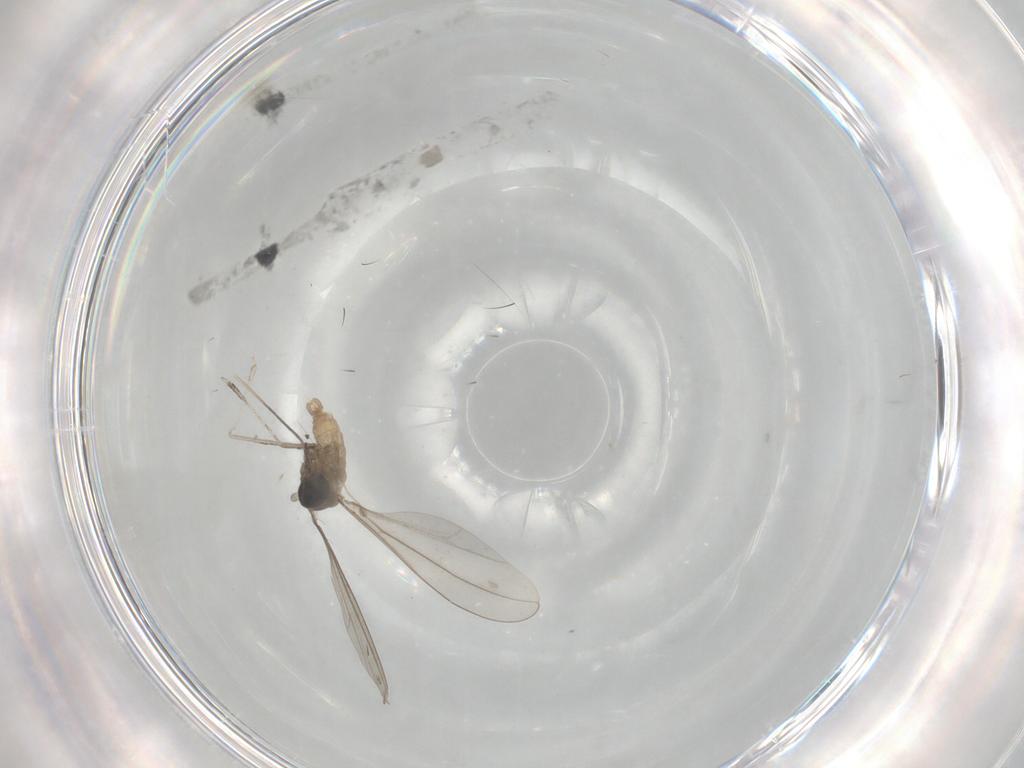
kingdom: Animalia
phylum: Arthropoda
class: Insecta
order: Diptera
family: Cecidomyiidae
